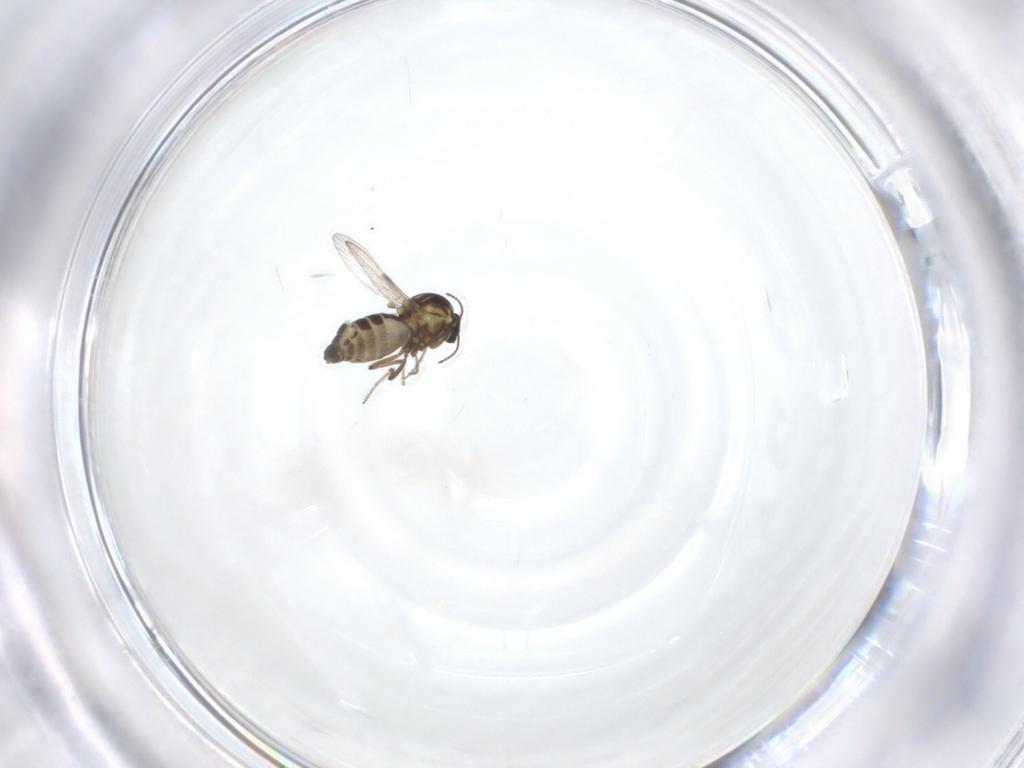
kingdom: Animalia
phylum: Arthropoda
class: Insecta
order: Diptera
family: Ceratopogonidae
